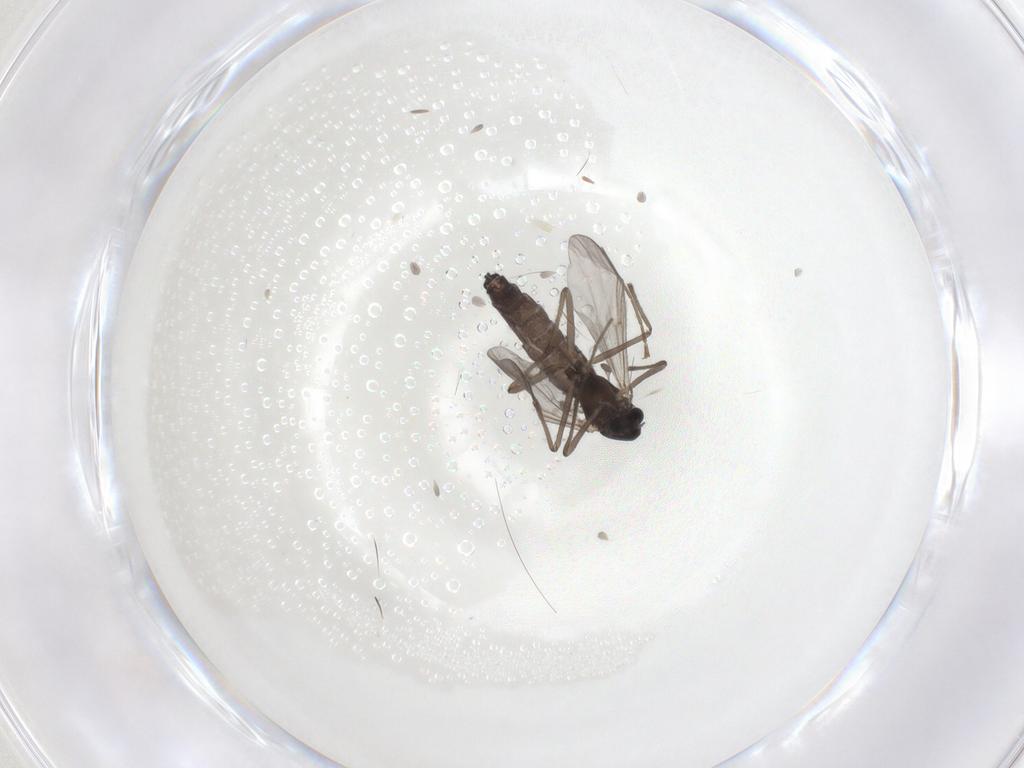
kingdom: Animalia
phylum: Arthropoda
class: Insecta
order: Diptera
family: Chironomidae
